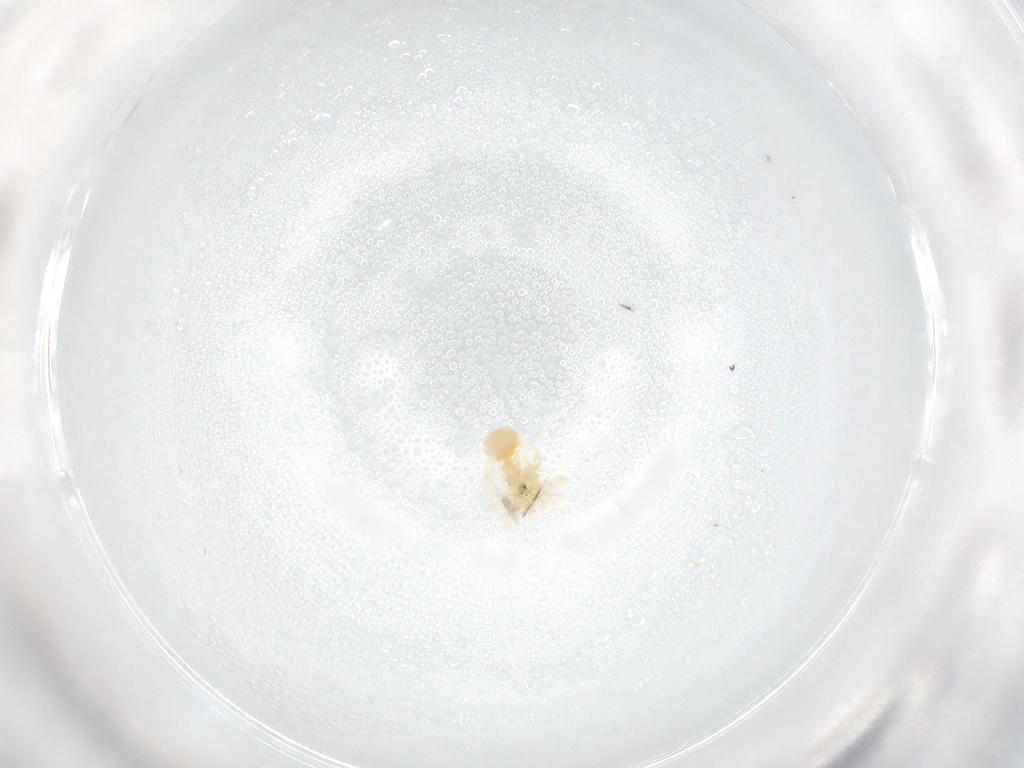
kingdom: Animalia
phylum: Arthropoda
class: Arachnida
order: Trombidiformes
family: Anystidae
